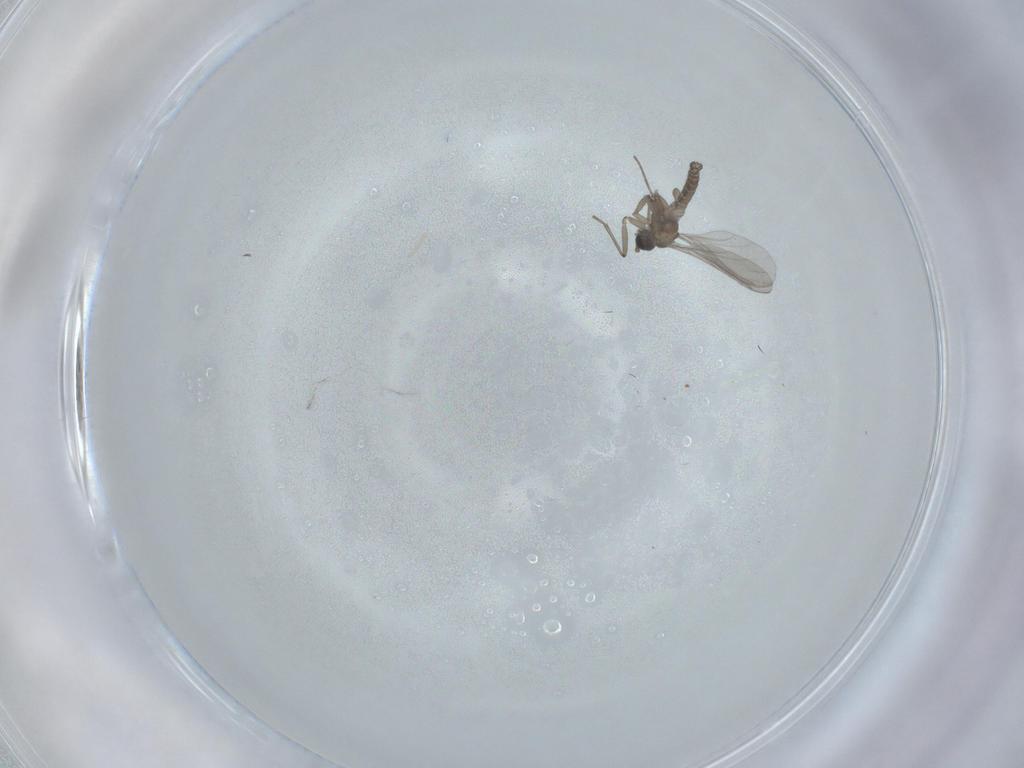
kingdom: Animalia
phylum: Arthropoda
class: Insecta
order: Diptera
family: Sciaridae
